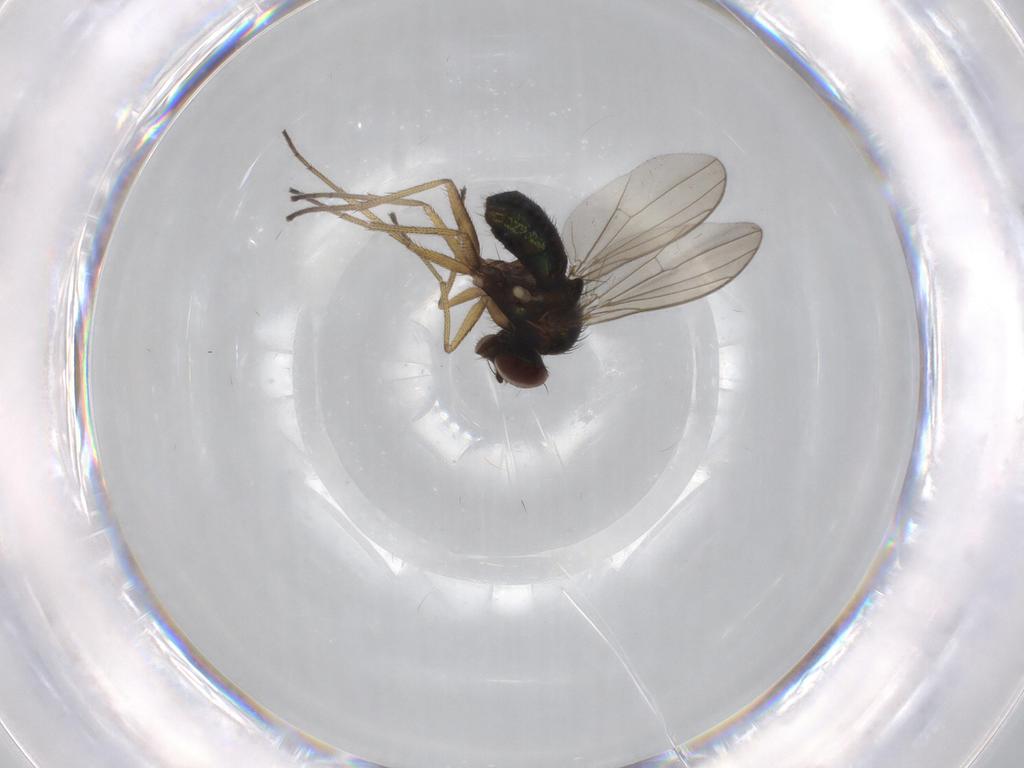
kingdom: Animalia
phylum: Arthropoda
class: Insecta
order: Diptera
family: Dolichopodidae
